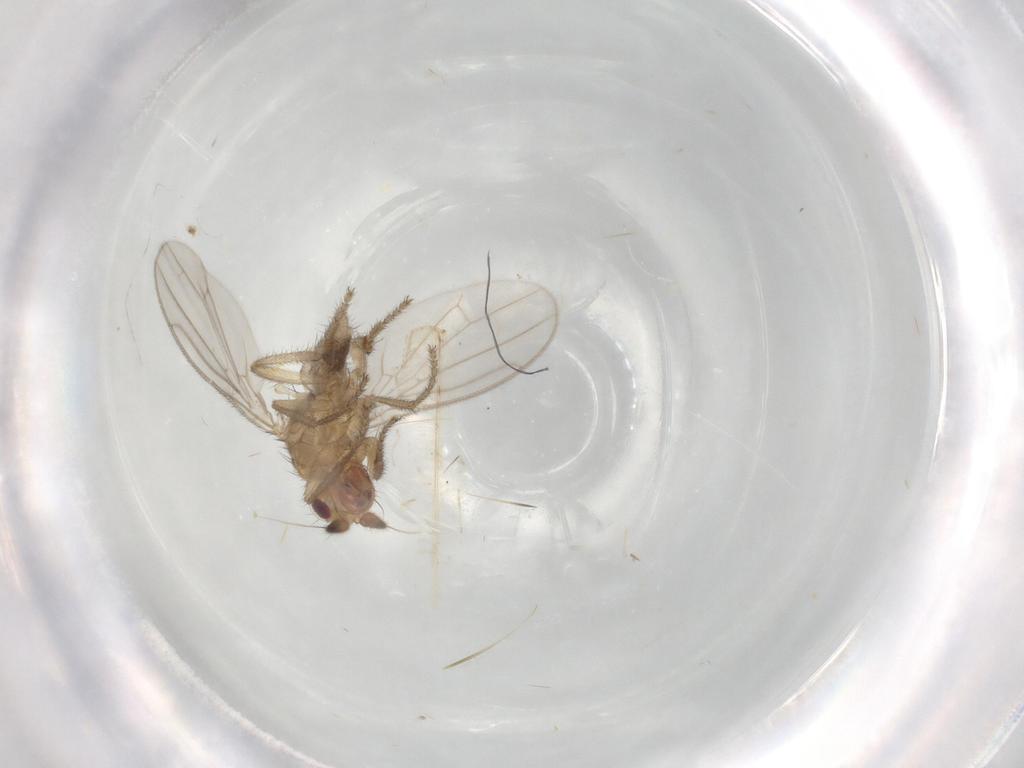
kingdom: Animalia
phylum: Arthropoda
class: Insecta
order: Diptera
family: Sphaeroceridae
